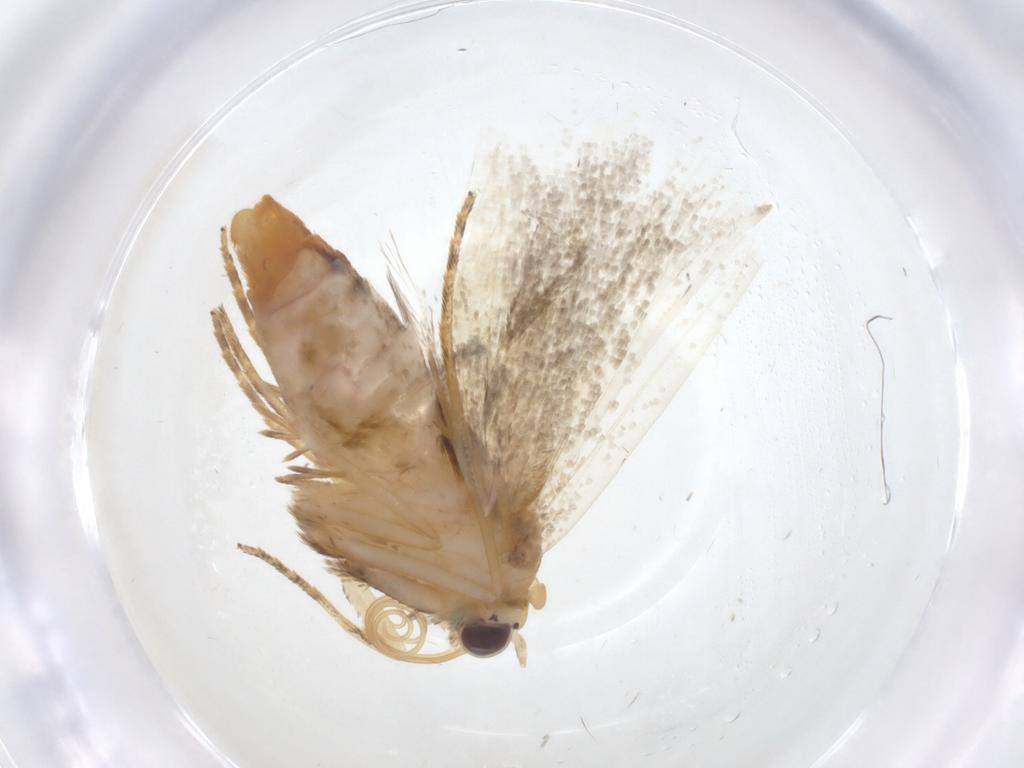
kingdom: Animalia
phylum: Arthropoda
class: Insecta
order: Lepidoptera
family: Erebidae
